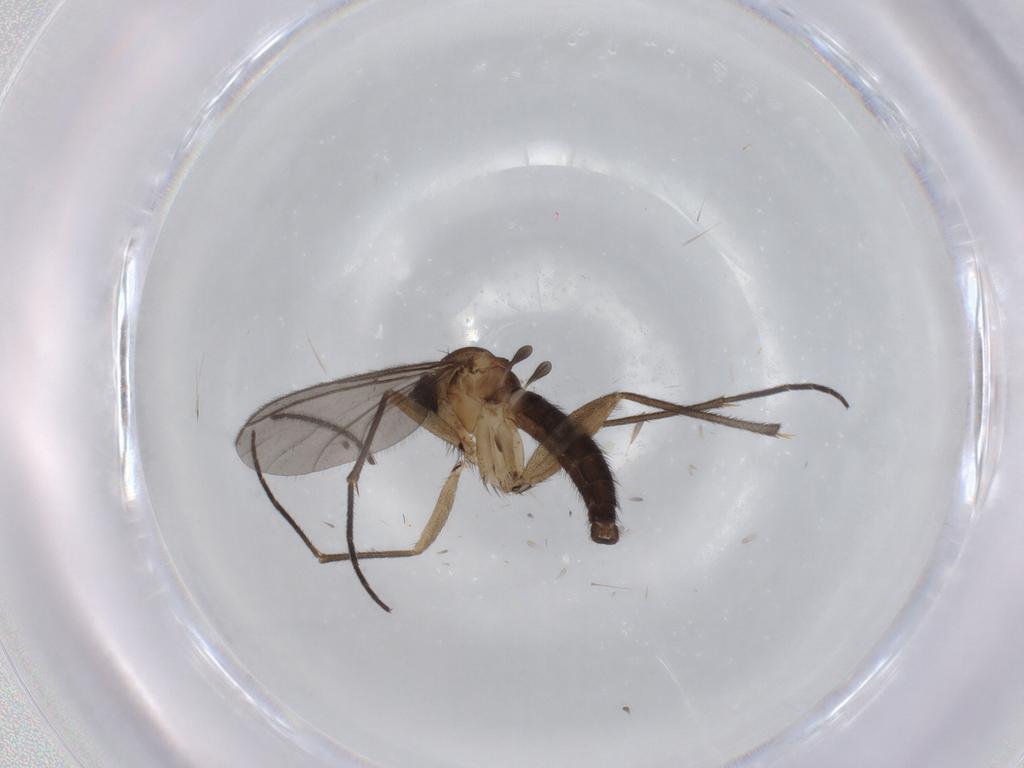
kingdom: Animalia
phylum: Arthropoda
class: Insecta
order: Diptera
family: Sciaridae
